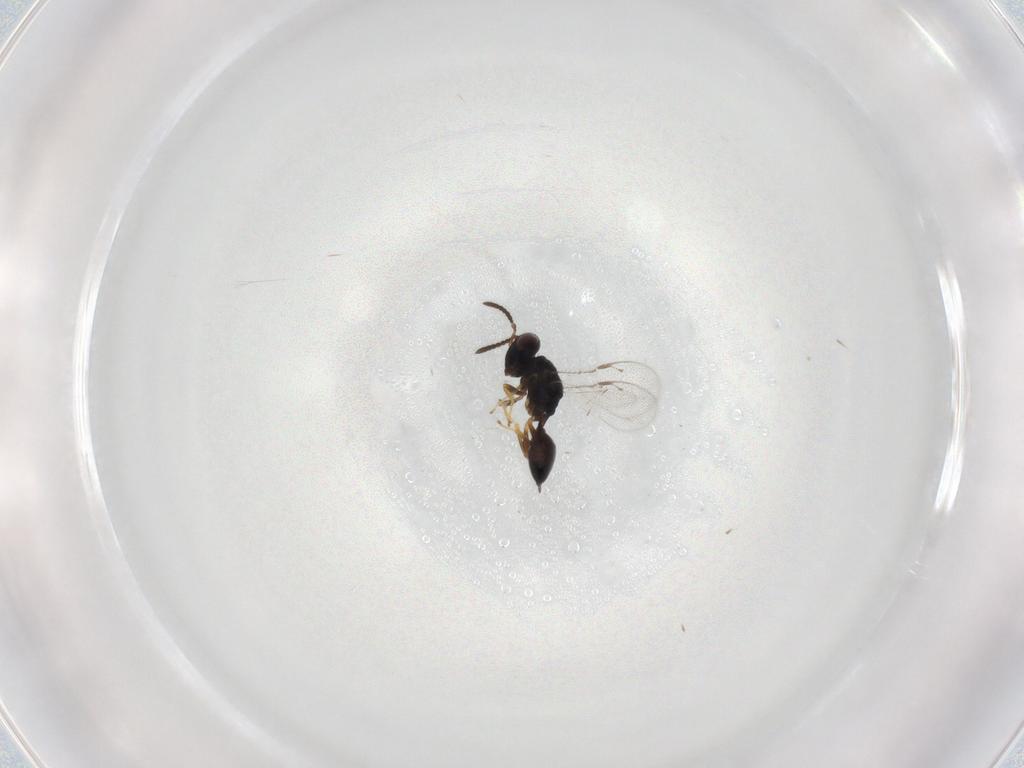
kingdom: Animalia
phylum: Arthropoda
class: Insecta
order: Hymenoptera
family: Pteromalidae
